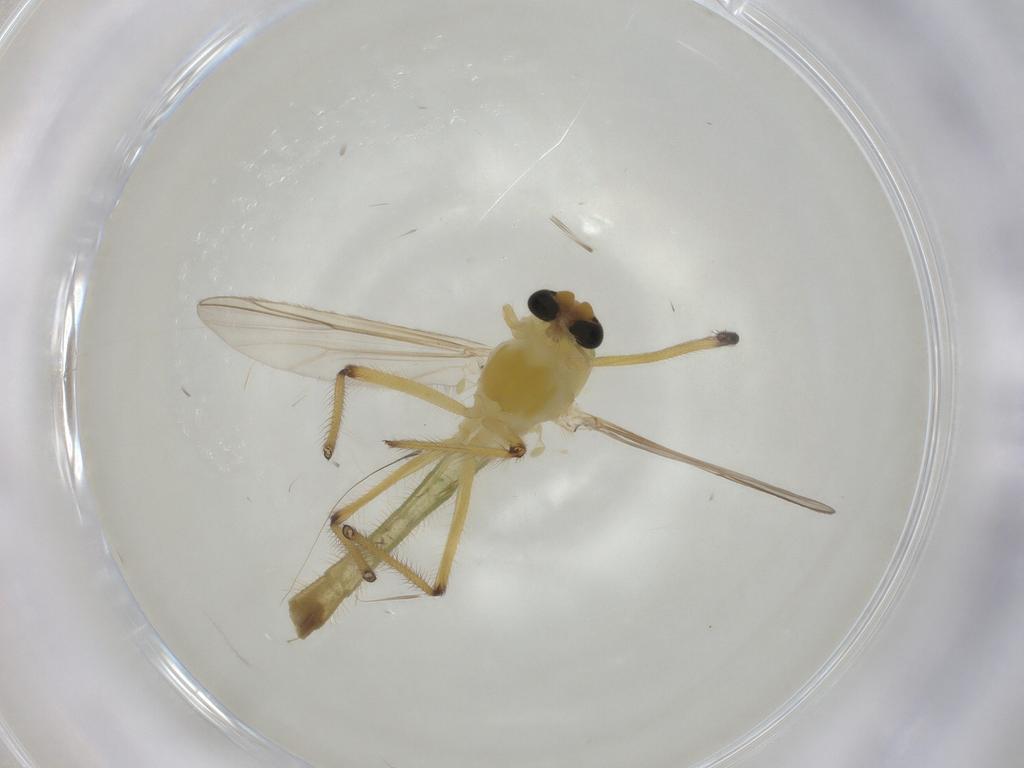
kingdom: Animalia
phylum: Arthropoda
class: Insecta
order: Diptera
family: Chironomidae
